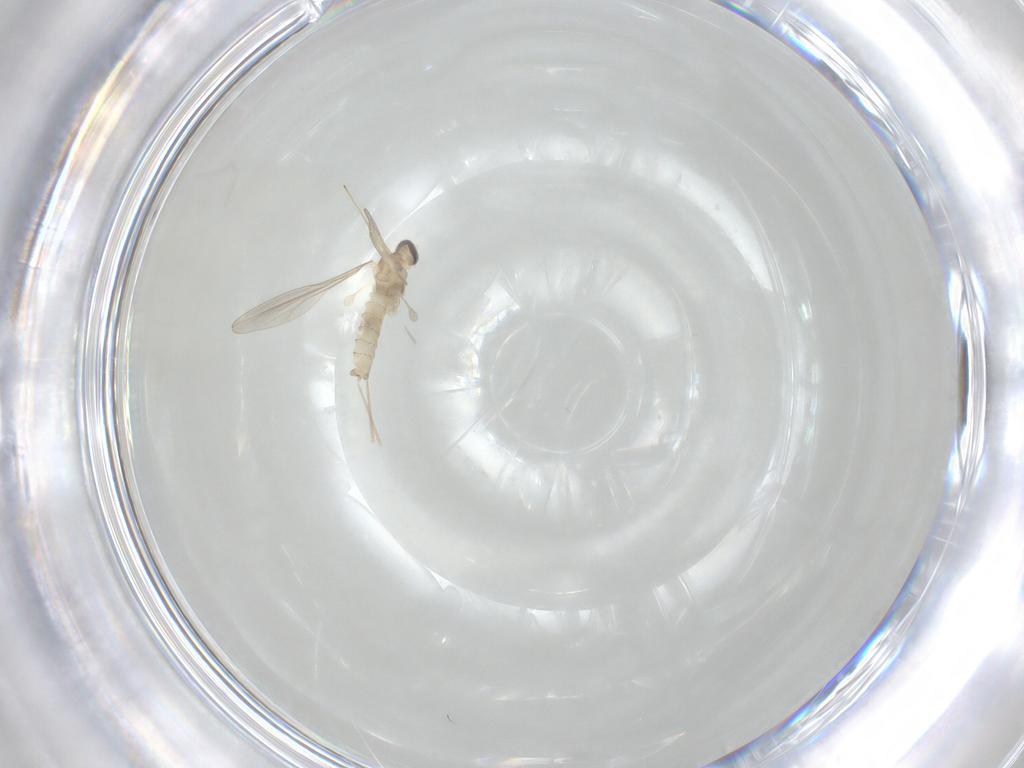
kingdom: Animalia
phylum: Arthropoda
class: Insecta
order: Diptera
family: Cecidomyiidae
